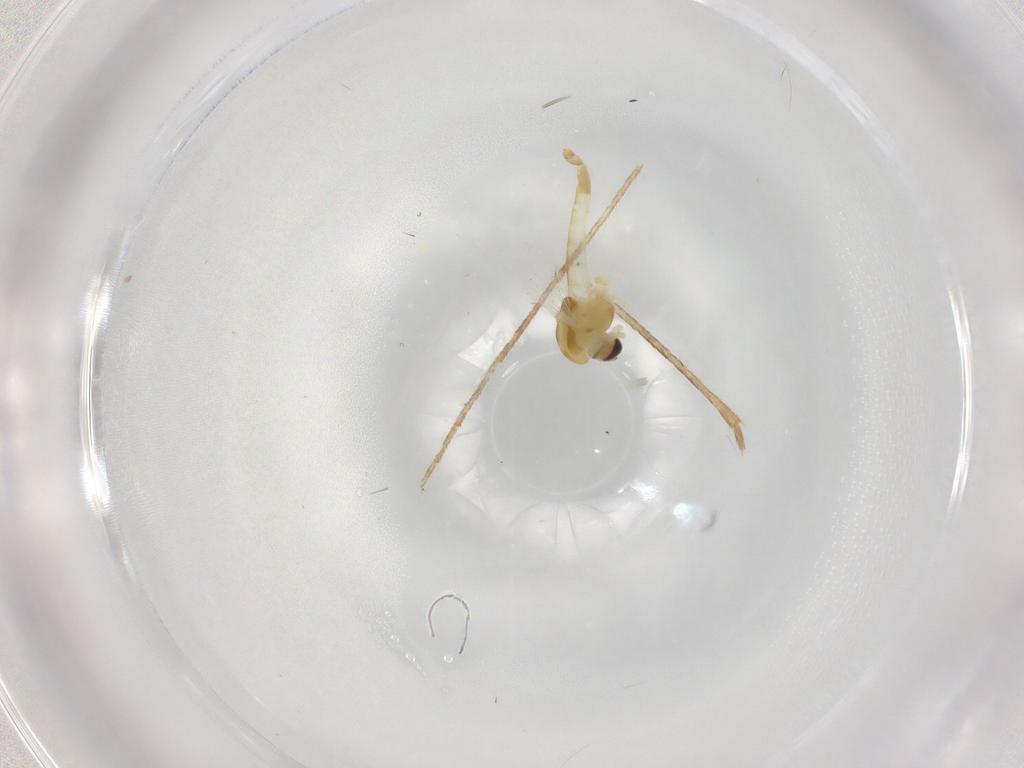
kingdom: Animalia
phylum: Arthropoda
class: Insecta
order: Diptera
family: Chironomidae
